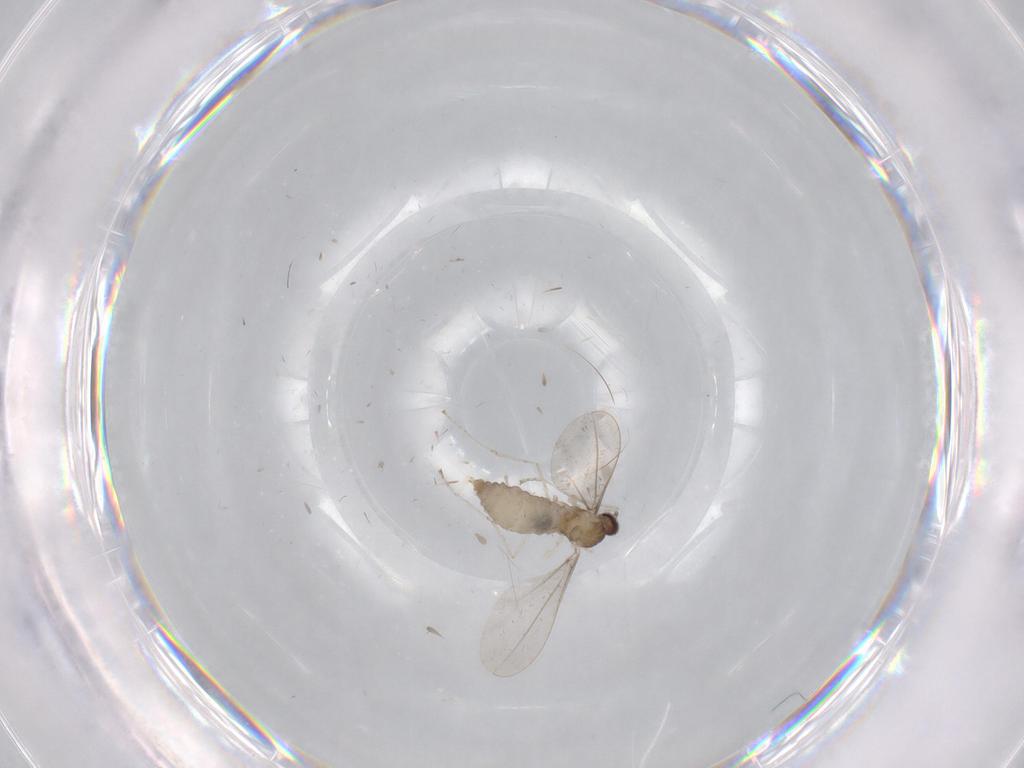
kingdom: Animalia
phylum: Arthropoda
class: Insecta
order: Diptera
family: Cecidomyiidae
